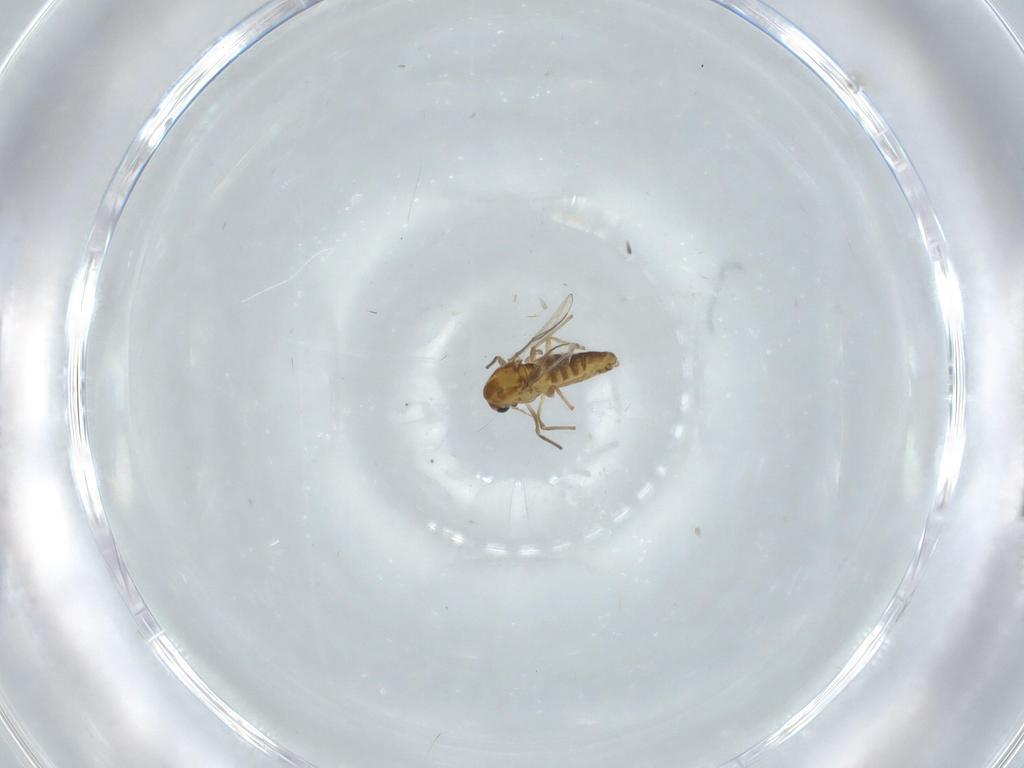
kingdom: Animalia
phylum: Arthropoda
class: Insecta
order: Diptera
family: Chironomidae
